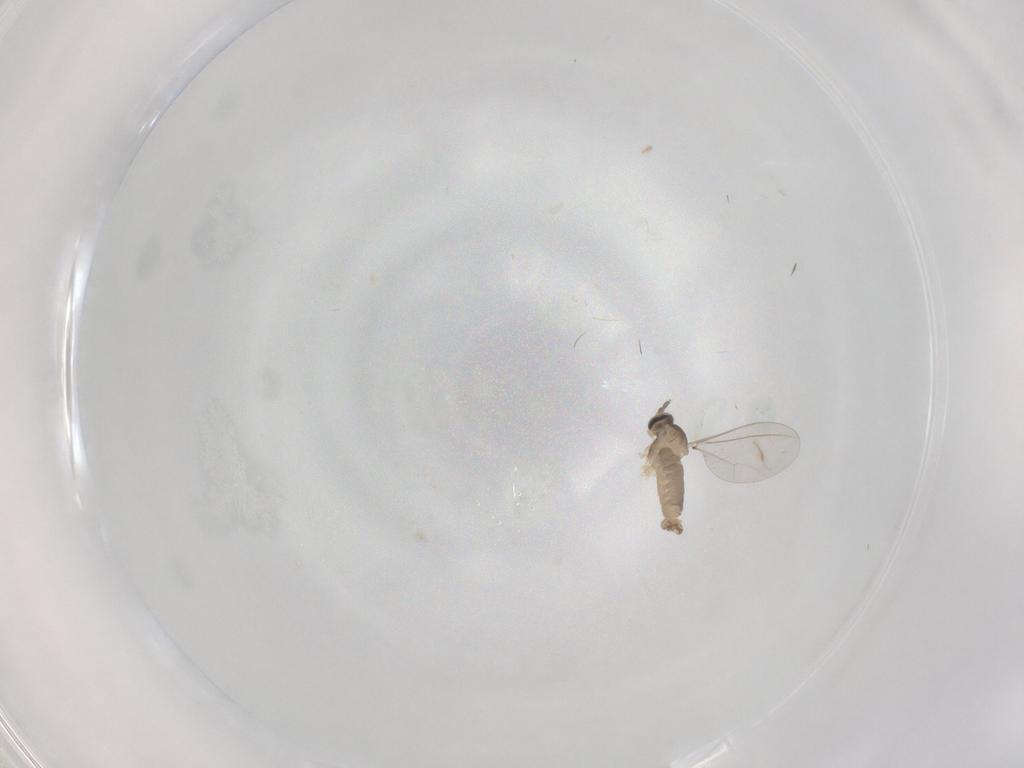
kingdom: Animalia
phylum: Arthropoda
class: Insecta
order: Diptera
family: Cecidomyiidae
